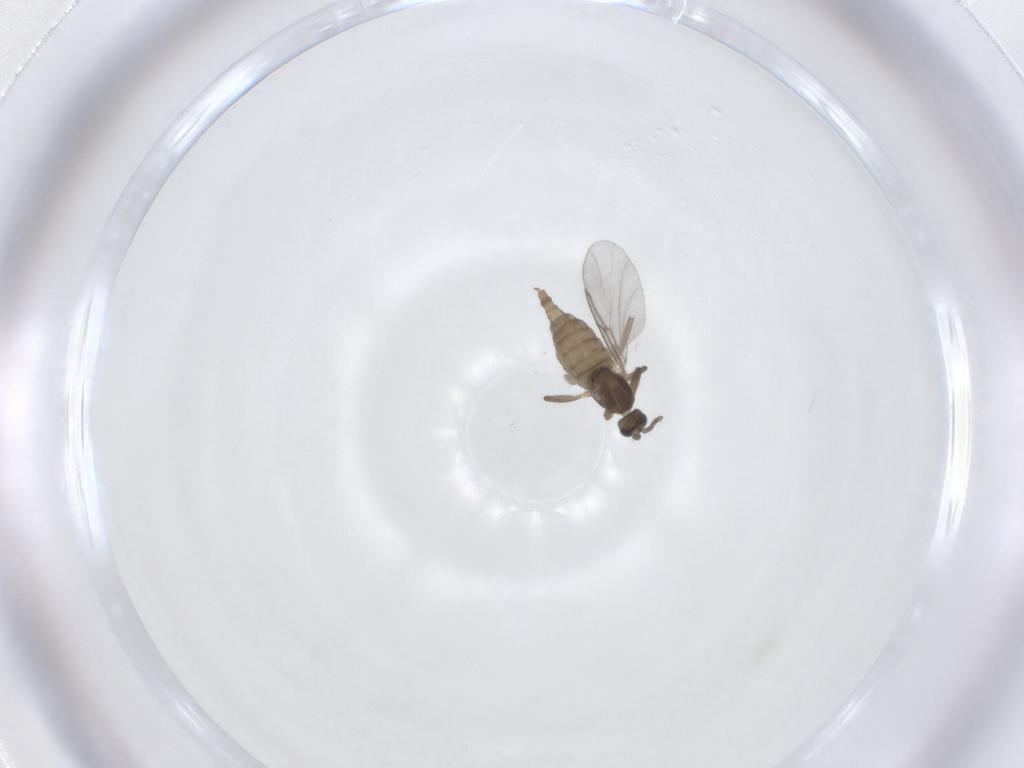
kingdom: Animalia
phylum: Arthropoda
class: Insecta
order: Diptera
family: Cecidomyiidae
